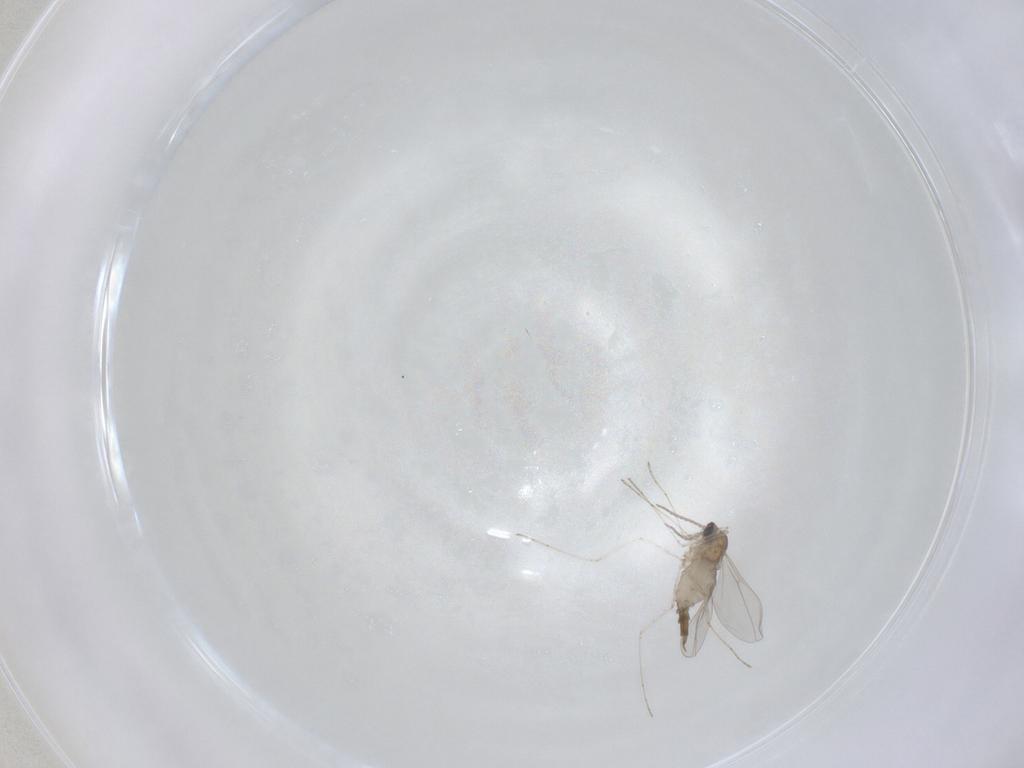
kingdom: Animalia
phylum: Arthropoda
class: Insecta
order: Diptera
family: Cecidomyiidae
